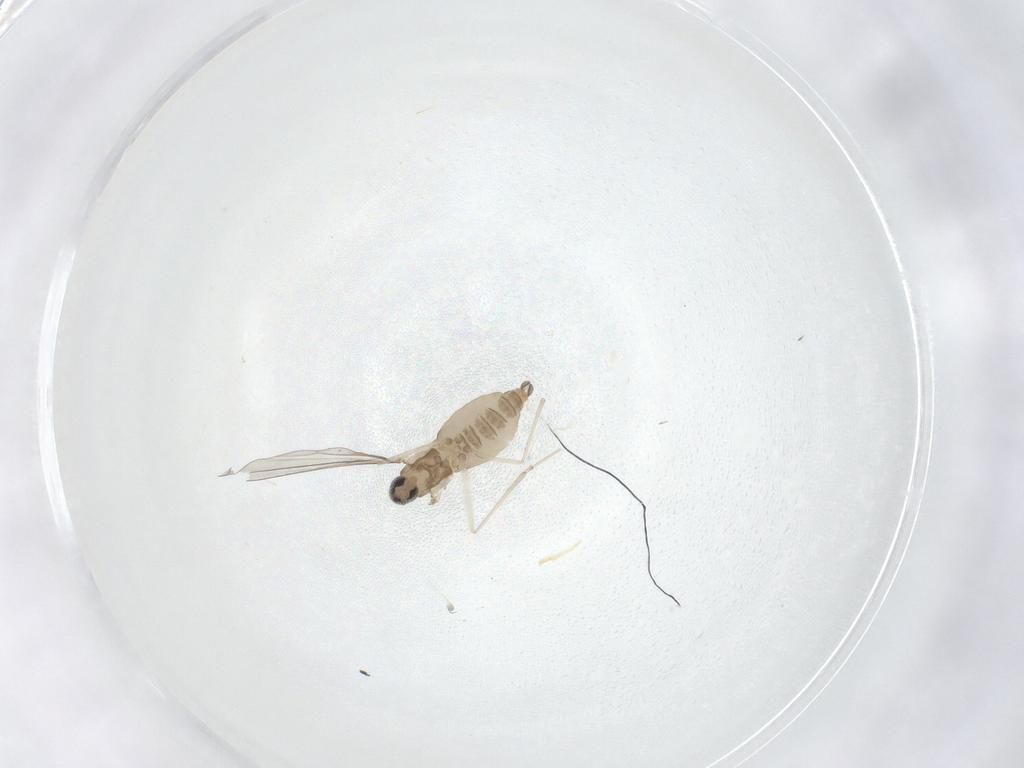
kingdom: Animalia
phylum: Arthropoda
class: Insecta
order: Diptera
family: Cecidomyiidae
